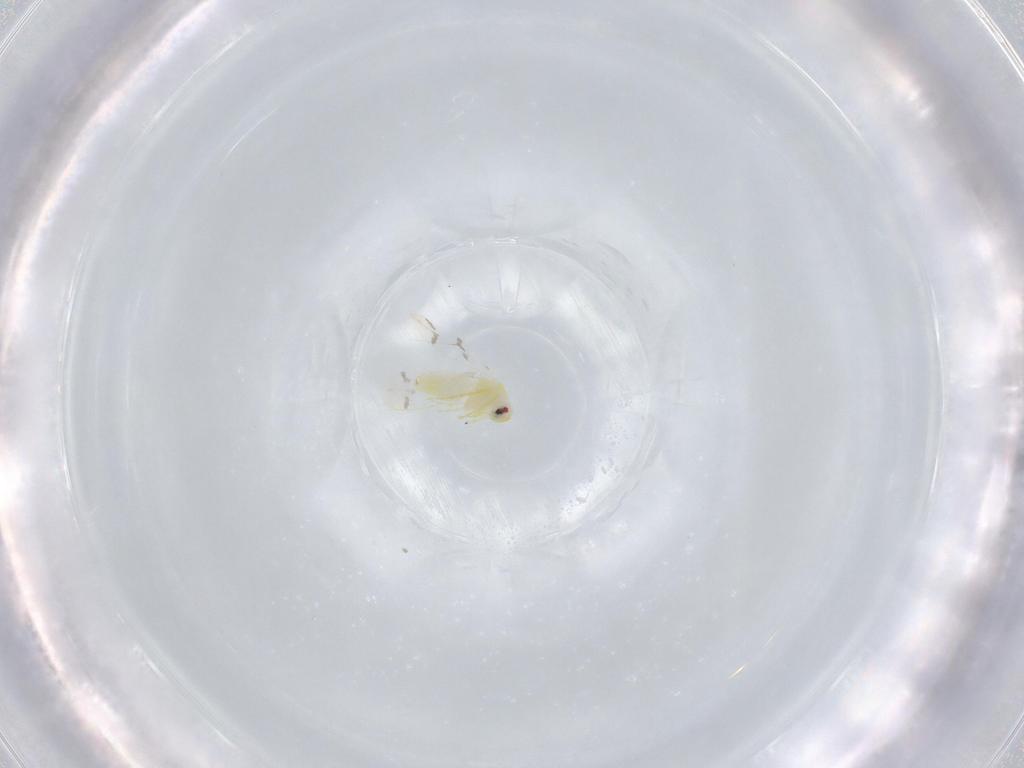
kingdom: Animalia
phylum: Arthropoda
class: Insecta
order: Hemiptera
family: Aleyrodidae
